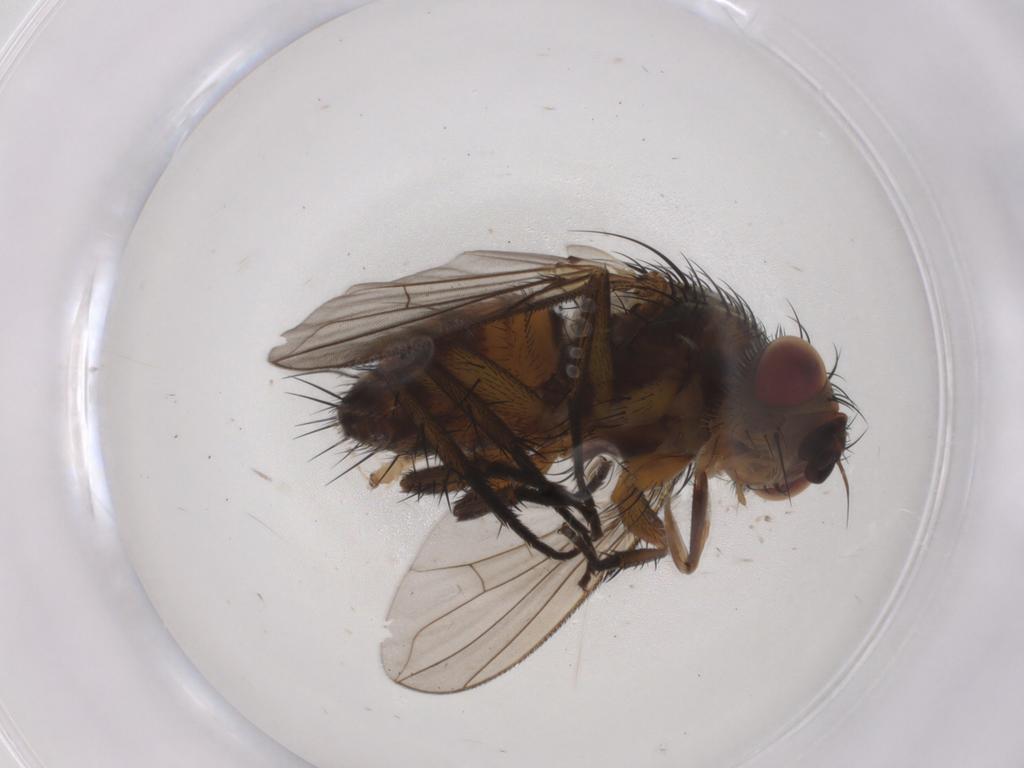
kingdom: Animalia
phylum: Arthropoda
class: Insecta
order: Diptera
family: Tachinidae
